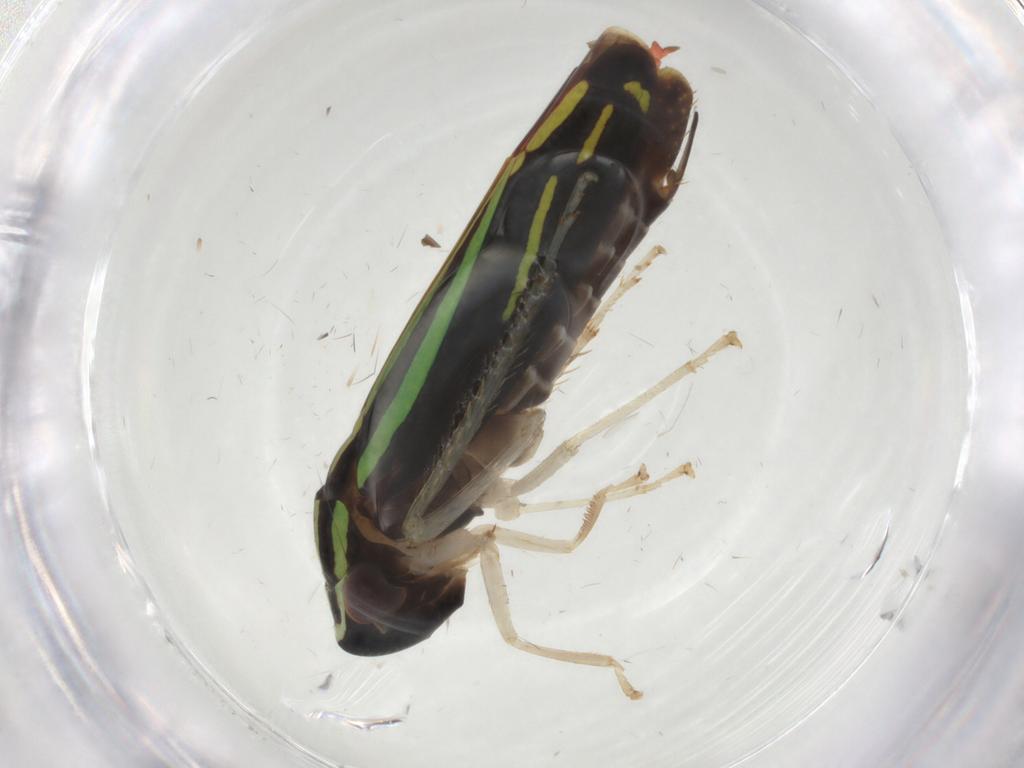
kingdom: Animalia
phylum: Arthropoda
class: Insecta
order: Hemiptera
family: Cicadellidae
